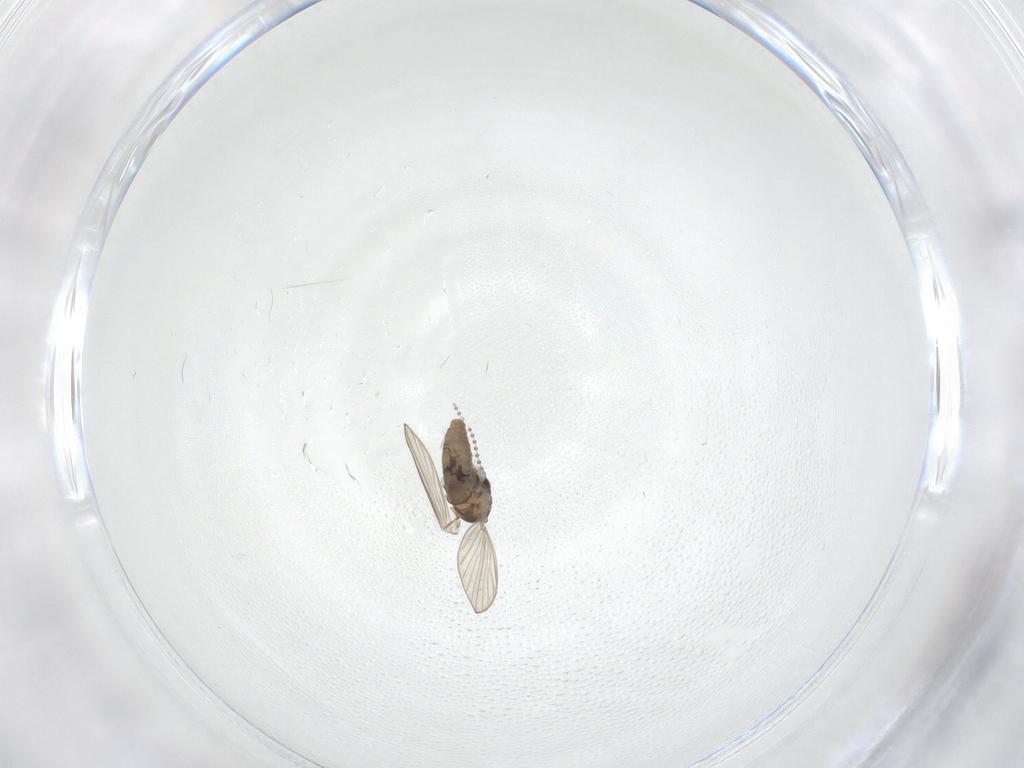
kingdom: Animalia
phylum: Arthropoda
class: Insecta
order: Diptera
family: Psychodidae
